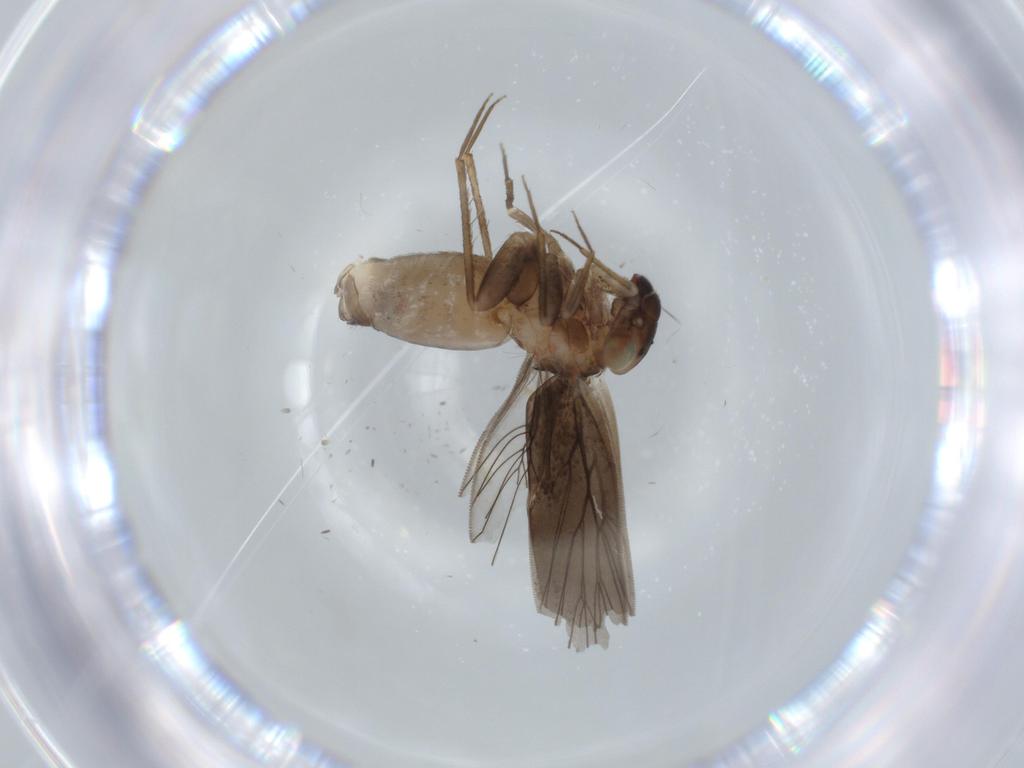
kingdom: Animalia
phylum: Arthropoda
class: Insecta
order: Psocodea
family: Lepidopsocidae
